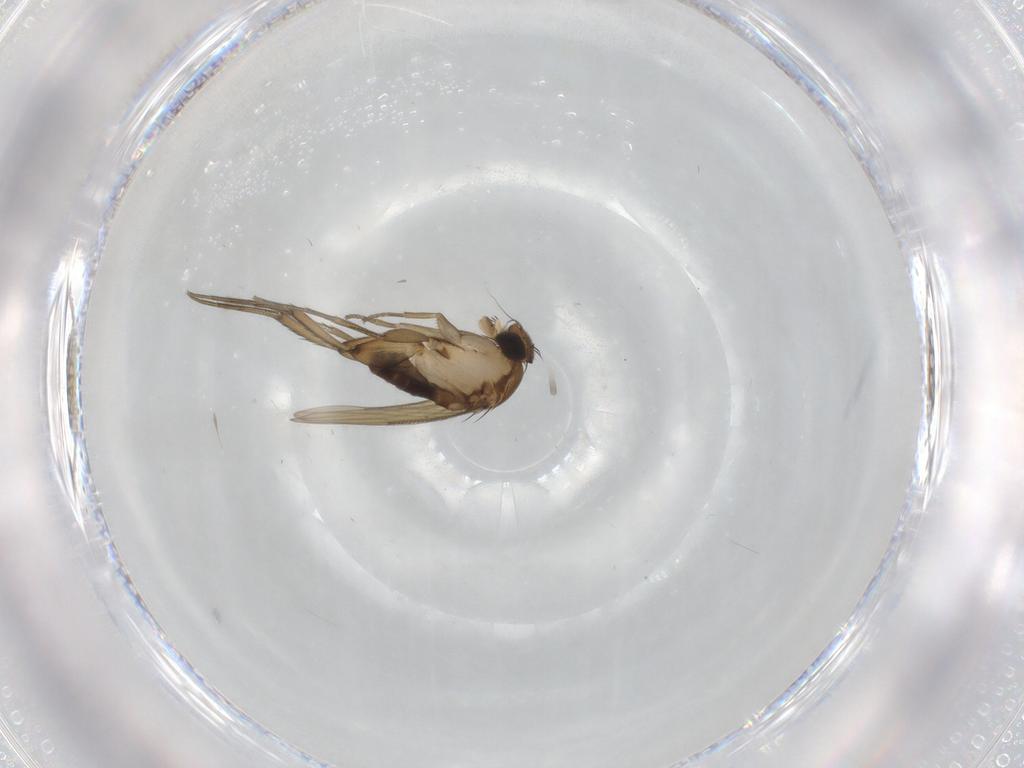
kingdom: Animalia
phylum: Arthropoda
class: Insecta
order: Diptera
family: Phoridae
